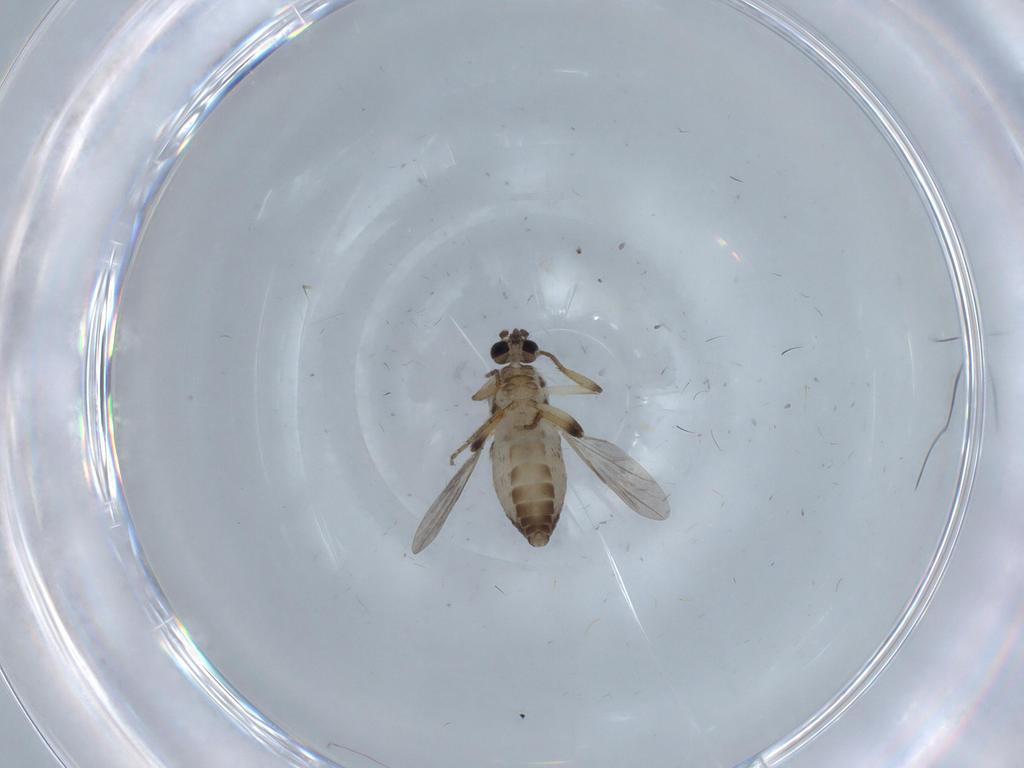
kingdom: Animalia
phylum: Arthropoda
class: Insecta
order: Diptera
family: Ceratopogonidae
